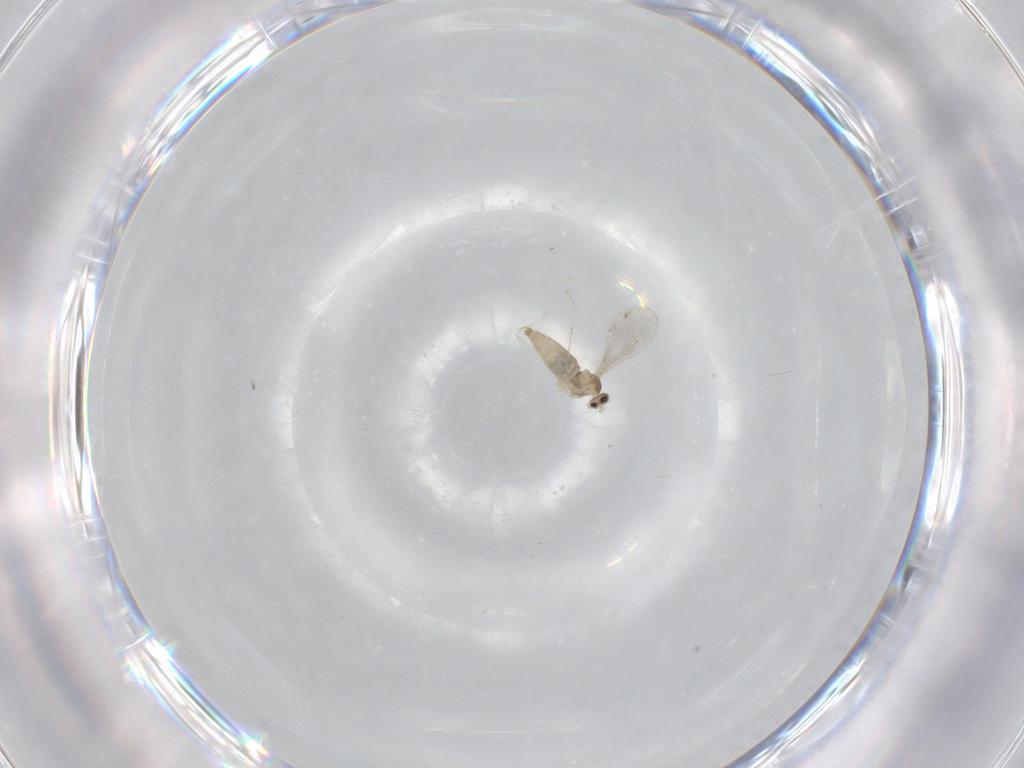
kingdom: Animalia
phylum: Arthropoda
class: Insecta
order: Diptera
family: Cecidomyiidae
